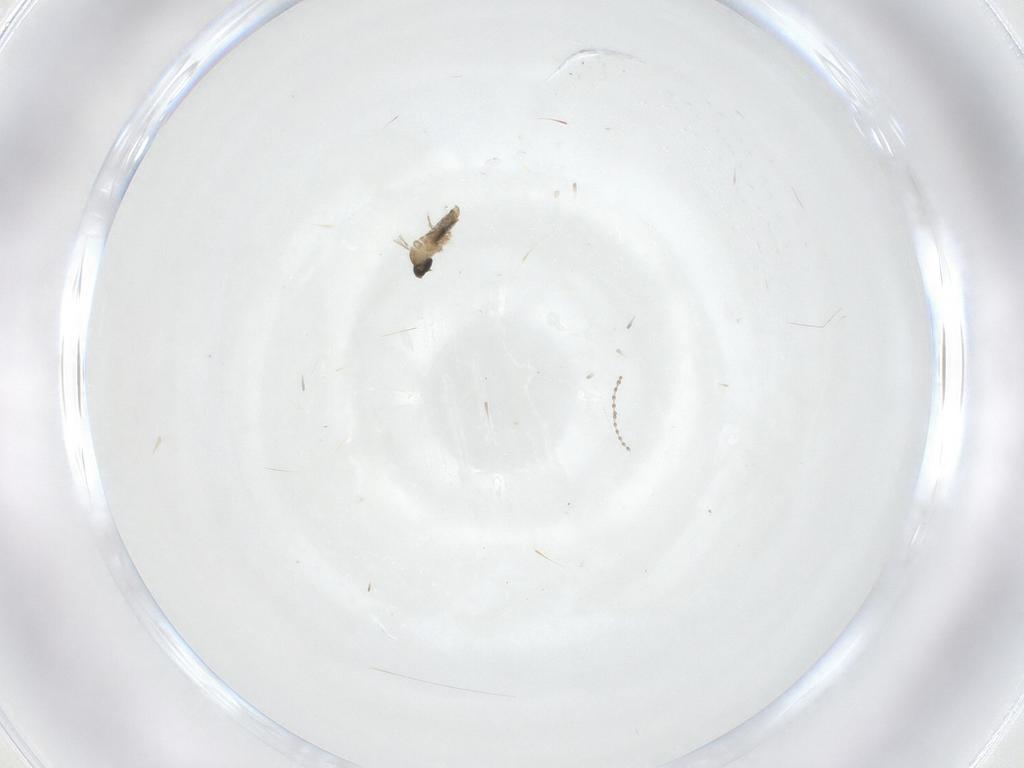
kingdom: Animalia
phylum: Arthropoda
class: Insecta
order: Diptera
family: Cecidomyiidae
